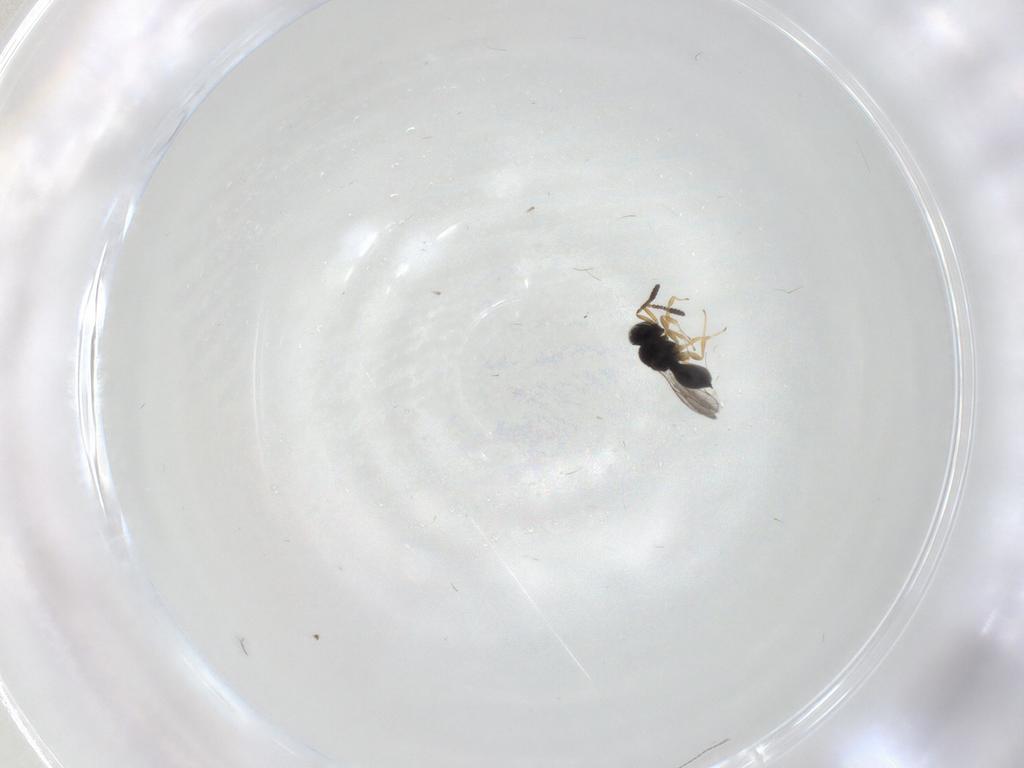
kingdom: Animalia
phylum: Arthropoda
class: Insecta
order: Hymenoptera
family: Scelionidae
